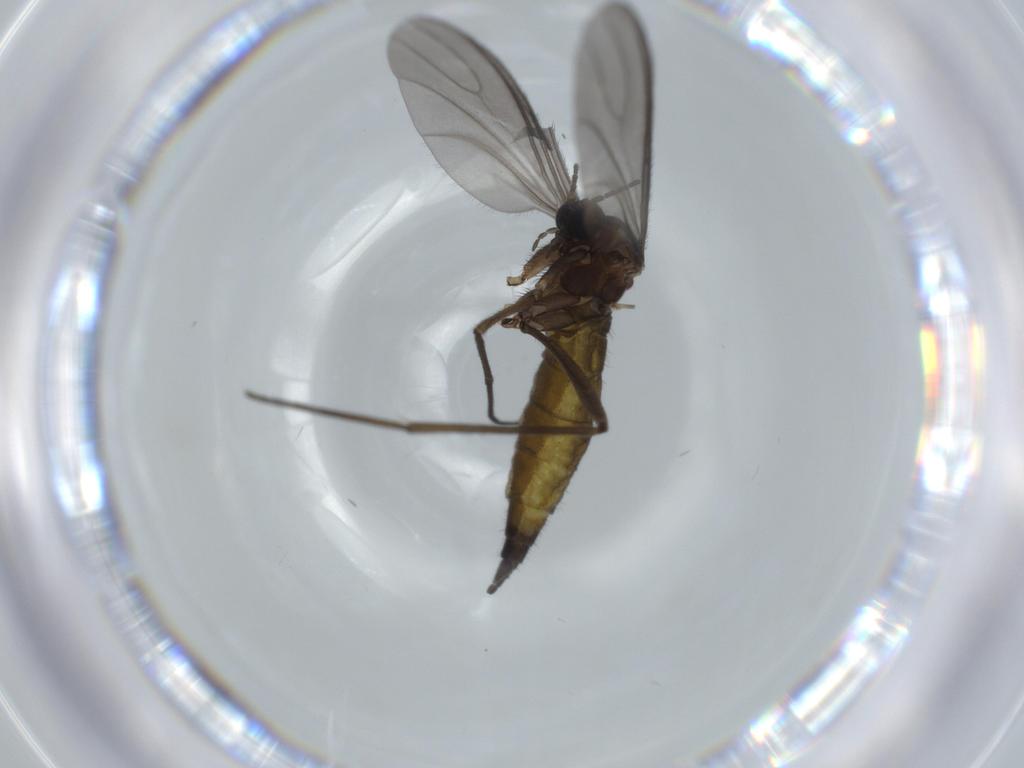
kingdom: Animalia
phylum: Arthropoda
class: Insecta
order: Diptera
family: Sciaridae
